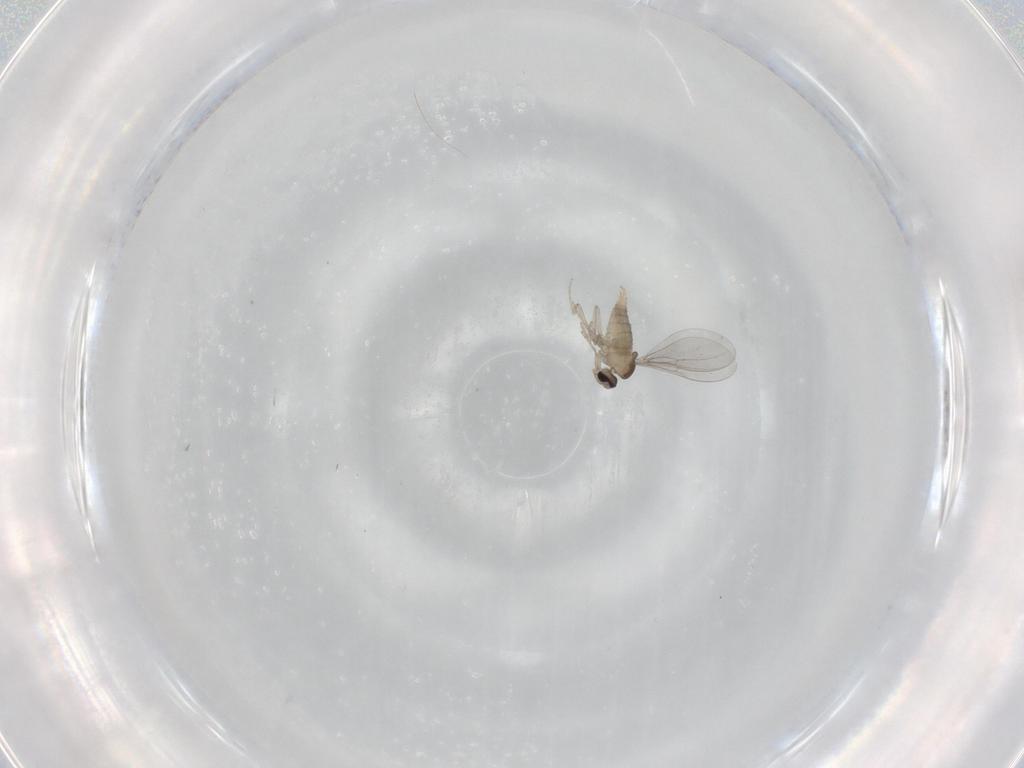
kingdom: Animalia
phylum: Arthropoda
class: Insecta
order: Diptera
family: Cecidomyiidae
